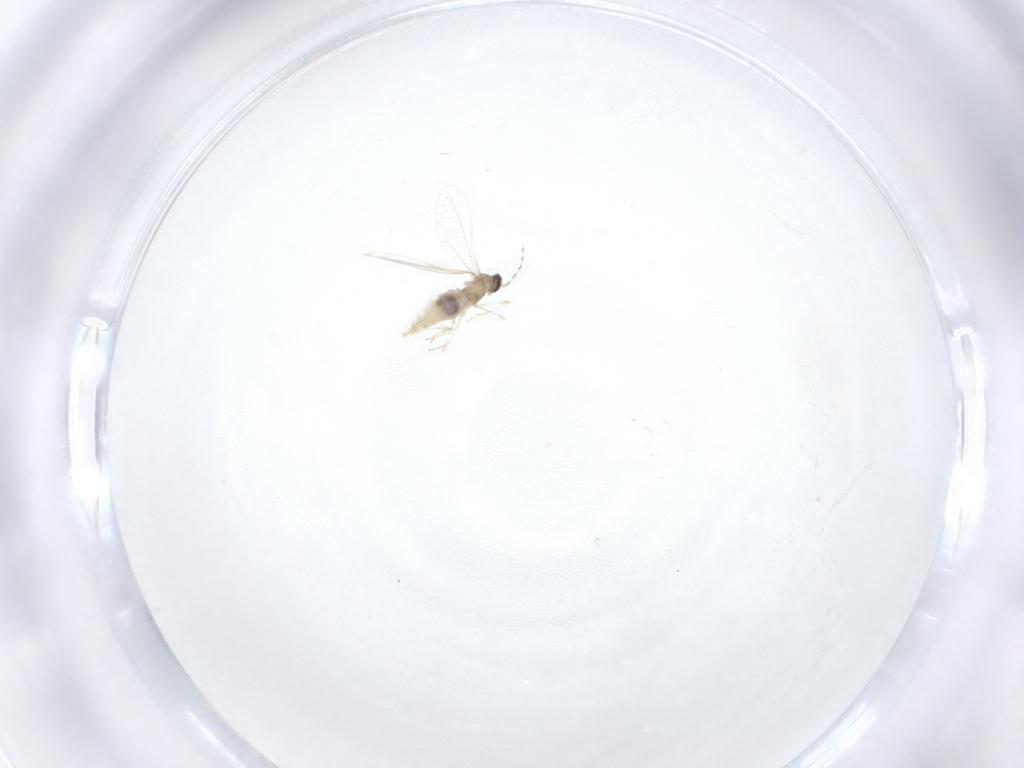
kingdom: Animalia
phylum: Arthropoda
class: Insecta
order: Diptera
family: Cecidomyiidae
